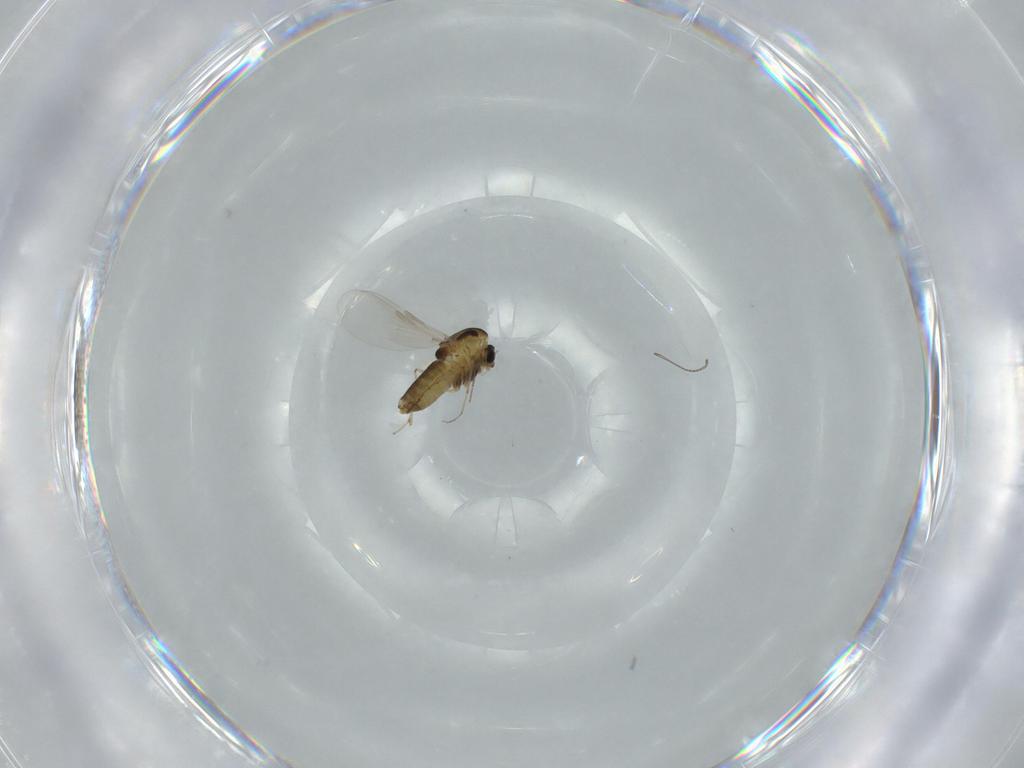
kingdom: Animalia
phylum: Arthropoda
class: Insecta
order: Diptera
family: Chironomidae
